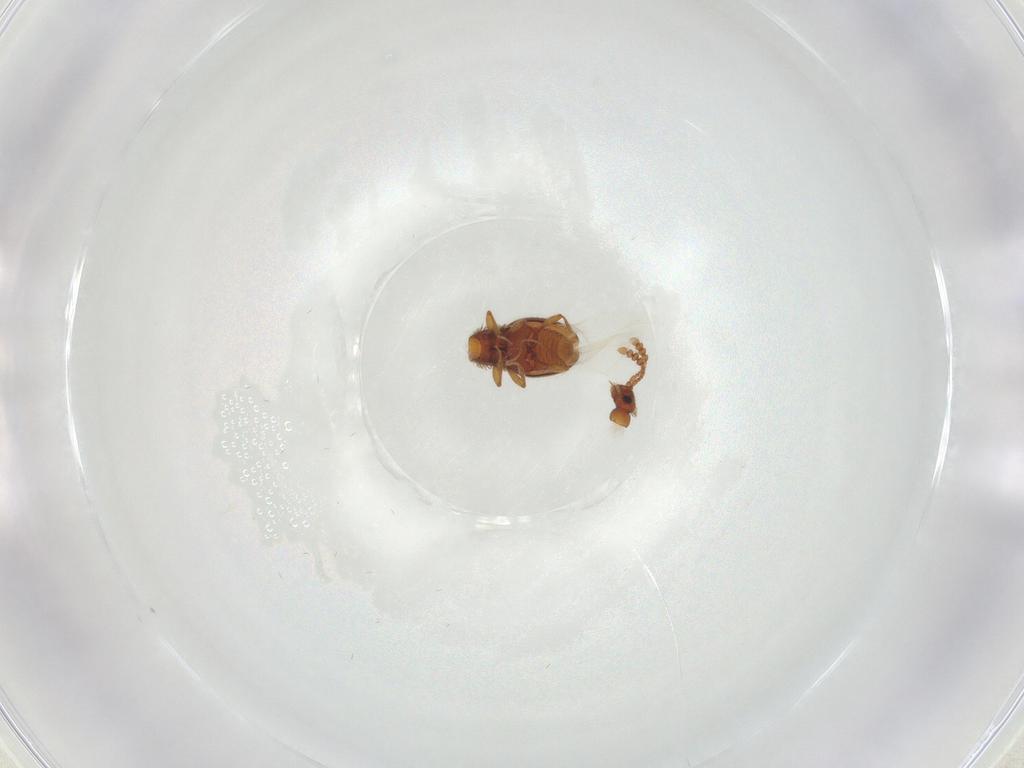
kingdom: Animalia
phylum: Arthropoda
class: Insecta
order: Coleoptera
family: Staphylinidae
